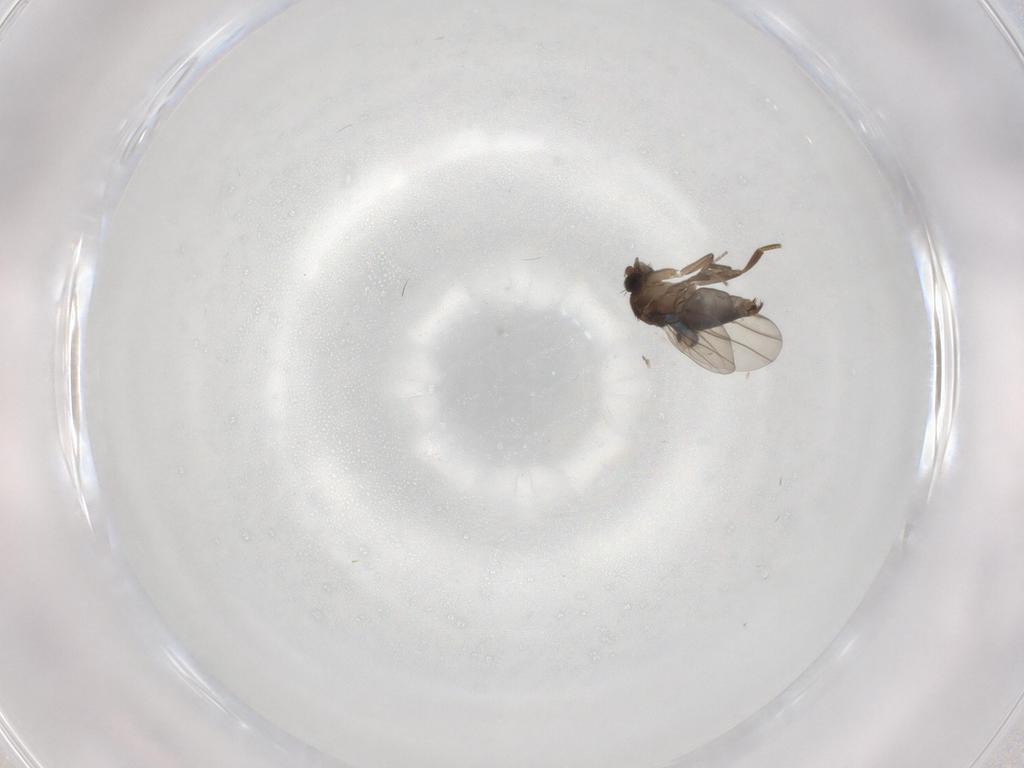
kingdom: Animalia
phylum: Arthropoda
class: Insecta
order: Diptera
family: Cecidomyiidae
